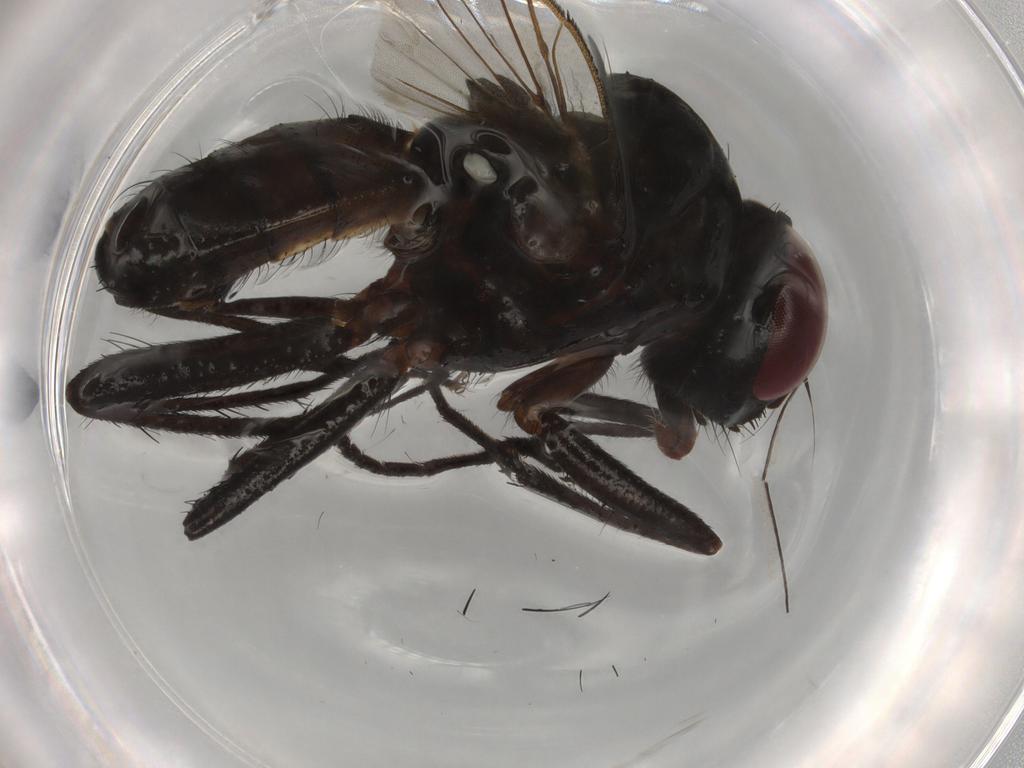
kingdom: Animalia
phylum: Arthropoda
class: Insecta
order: Diptera
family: Anthomyiidae
